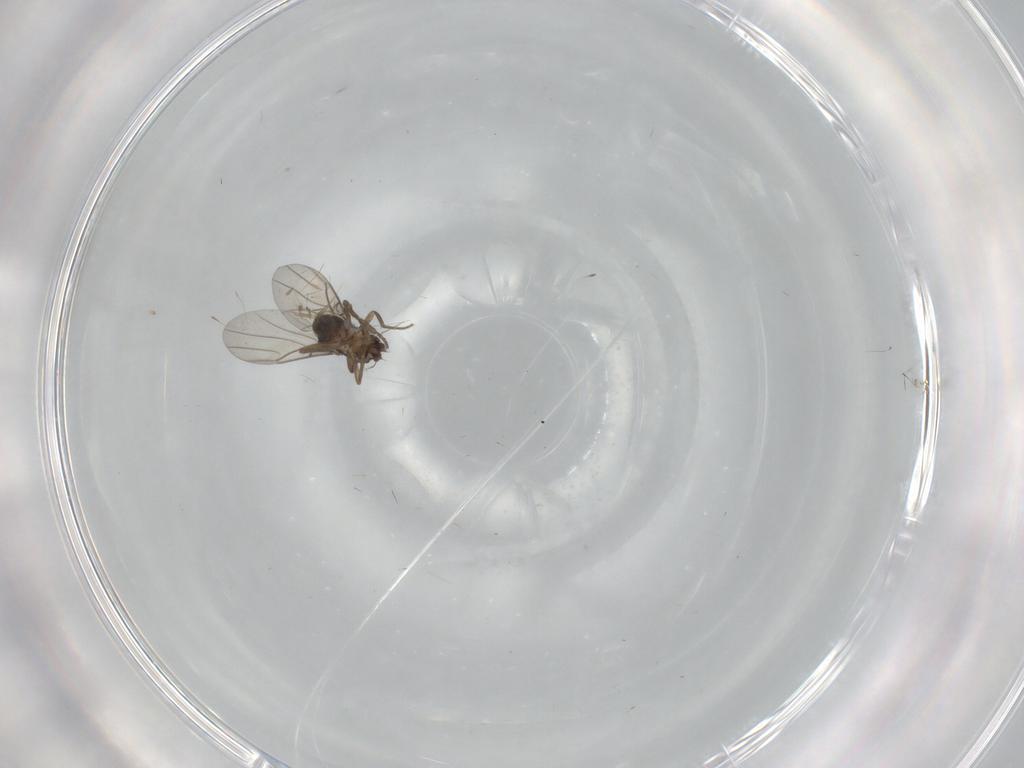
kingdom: Animalia
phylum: Arthropoda
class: Insecta
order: Diptera
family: Phoridae
